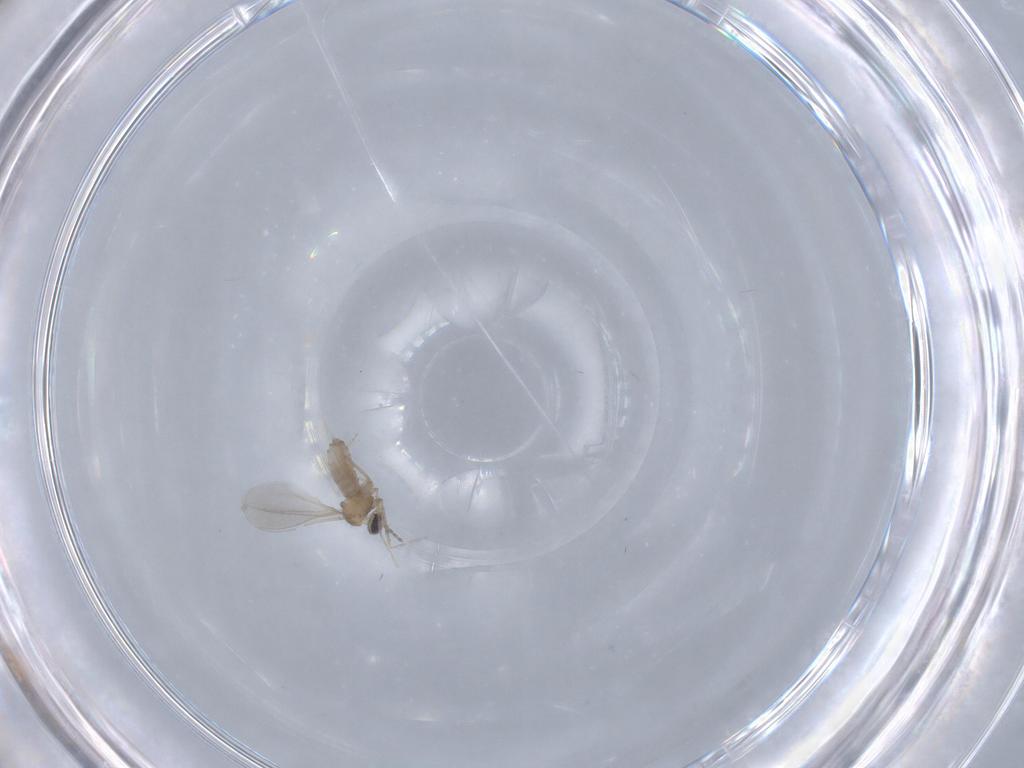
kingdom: Animalia
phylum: Arthropoda
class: Insecta
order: Diptera
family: Cecidomyiidae
